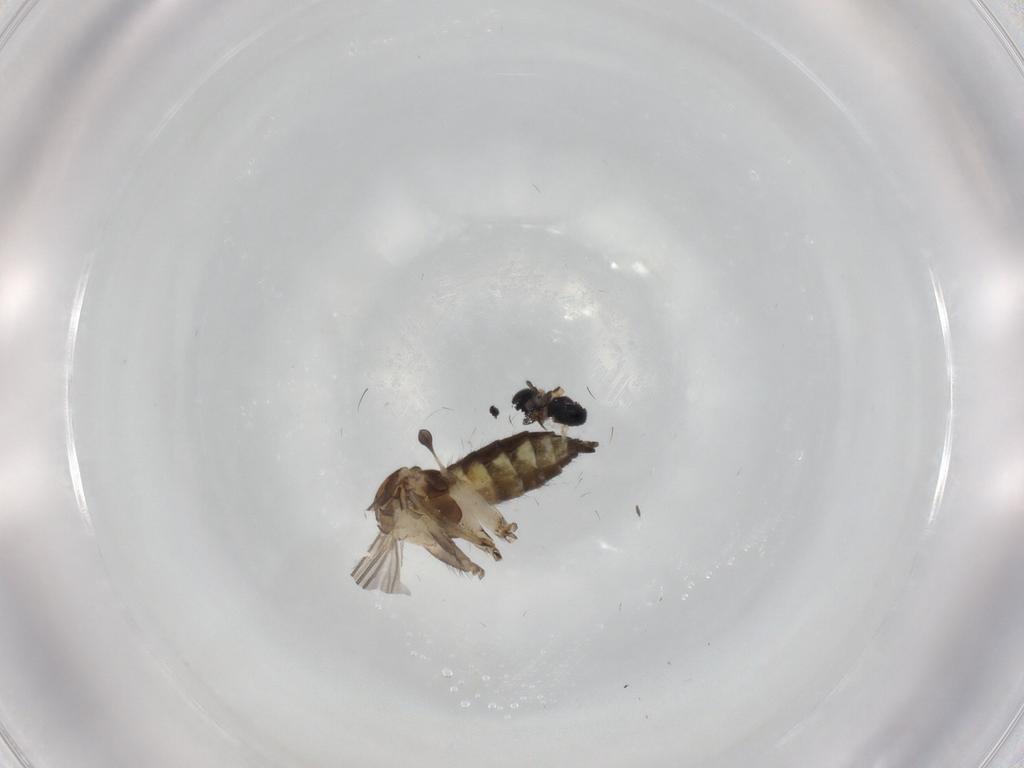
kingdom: Animalia
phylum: Arthropoda
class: Insecta
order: Diptera
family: Sciaridae
